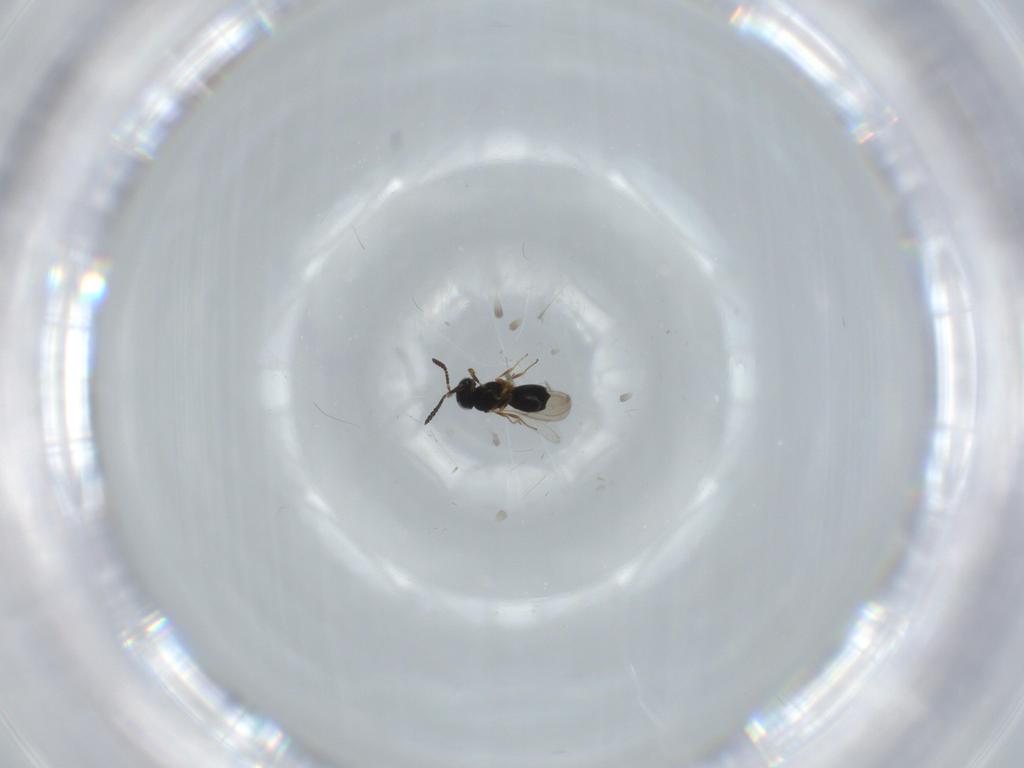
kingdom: Animalia
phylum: Arthropoda
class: Insecta
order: Hymenoptera
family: Scelionidae
